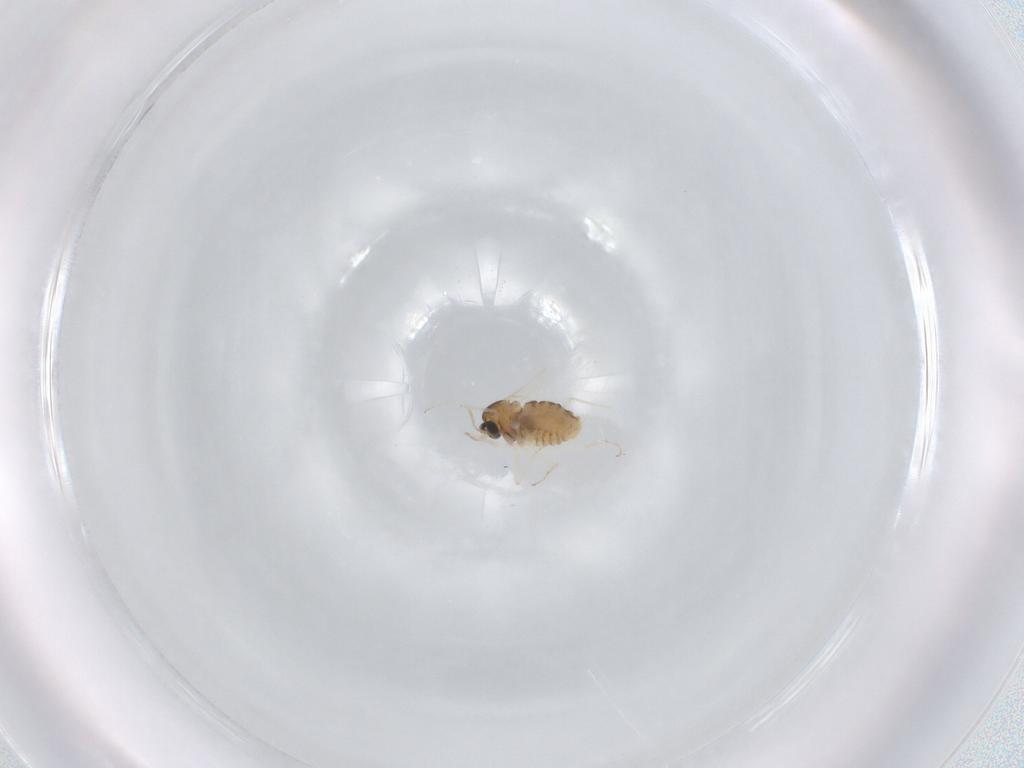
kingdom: Animalia
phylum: Arthropoda
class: Insecta
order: Diptera
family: Cecidomyiidae
